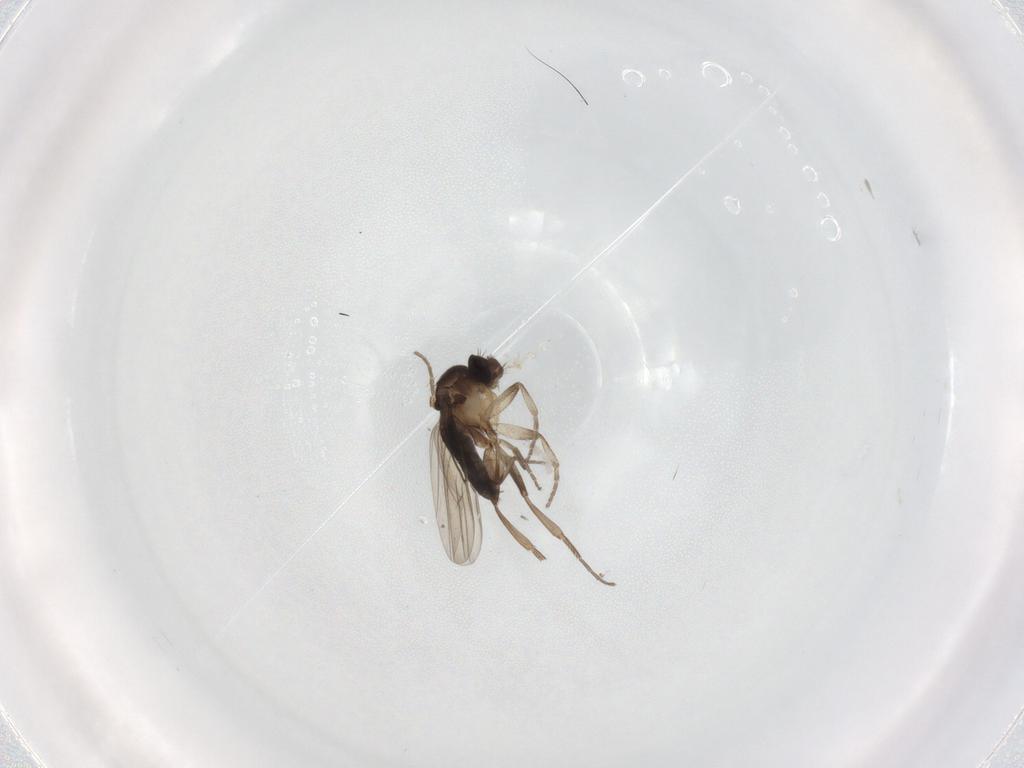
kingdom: Animalia
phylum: Arthropoda
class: Insecta
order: Diptera
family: Phoridae
